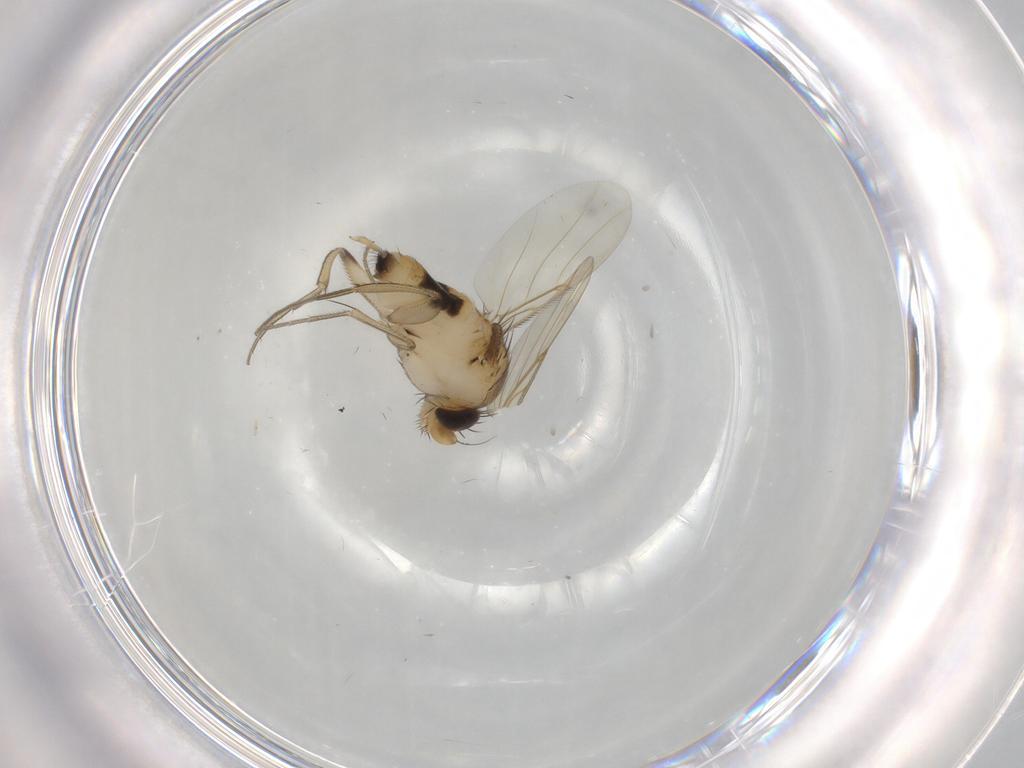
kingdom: Animalia
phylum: Arthropoda
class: Insecta
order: Diptera
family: Phoridae
